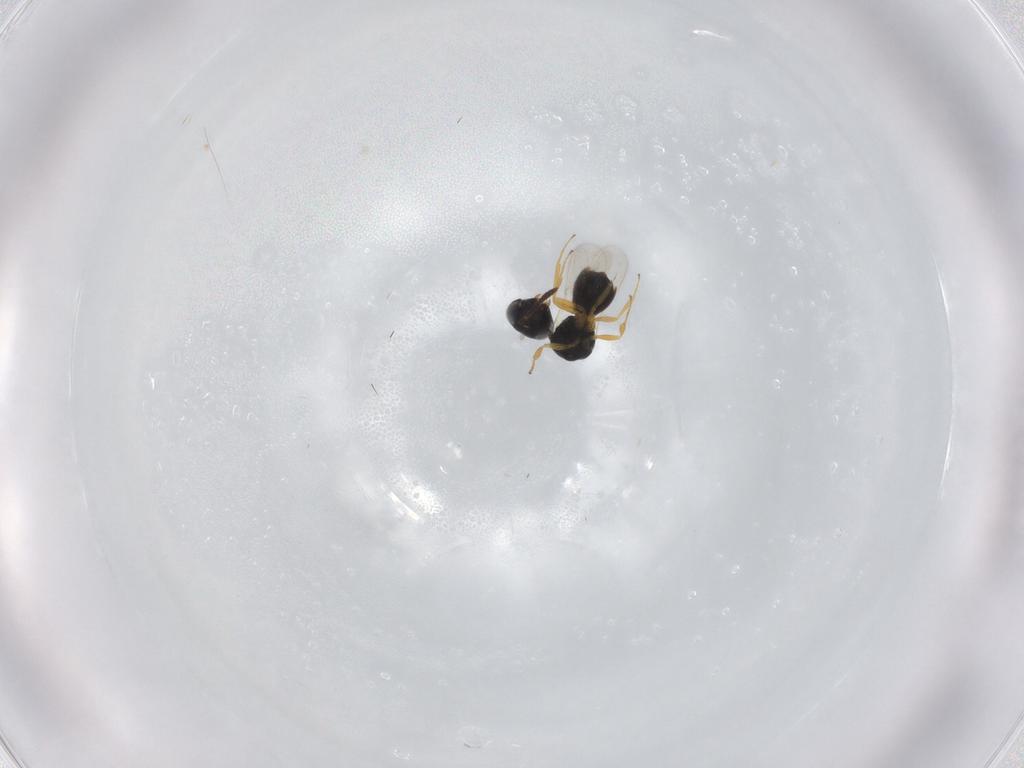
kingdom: Animalia
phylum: Arthropoda
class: Insecta
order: Hymenoptera
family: Scelionidae
